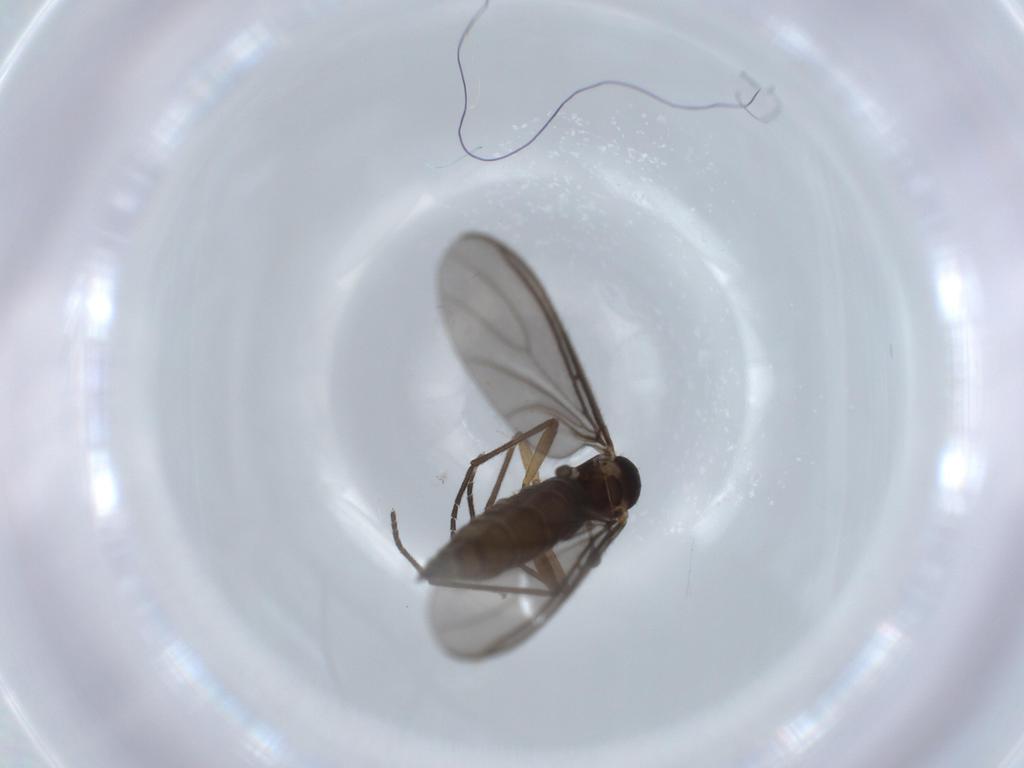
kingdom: Animalia
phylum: Arthropoda
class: Insecta
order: Diptera
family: Sciaridae
